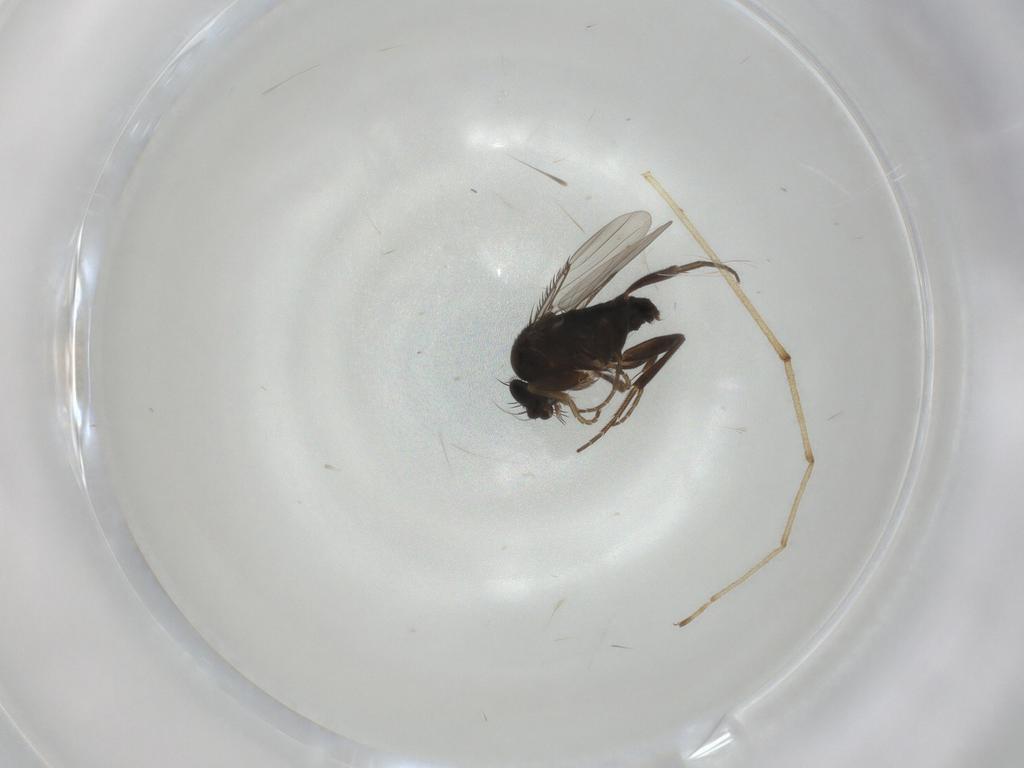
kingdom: Animalia
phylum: Arthropoda
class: Insecta
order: Diptera
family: Phoridae
